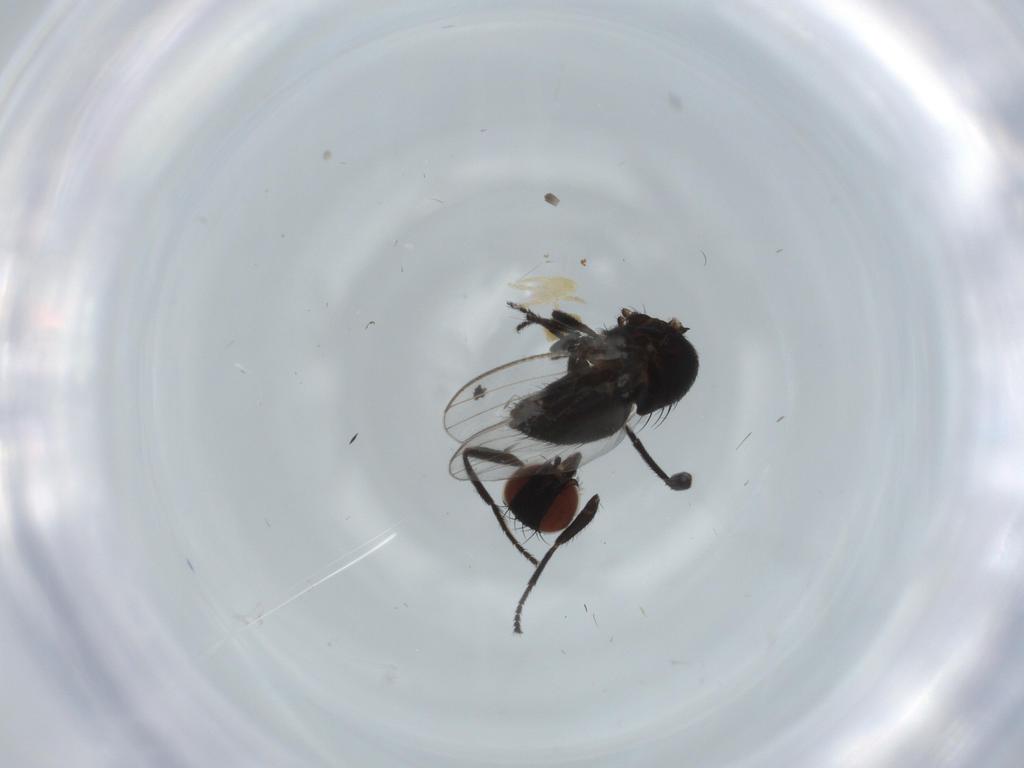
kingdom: Animalia
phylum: Arthropoda
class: Insecta
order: Diptera
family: Milichiidae
